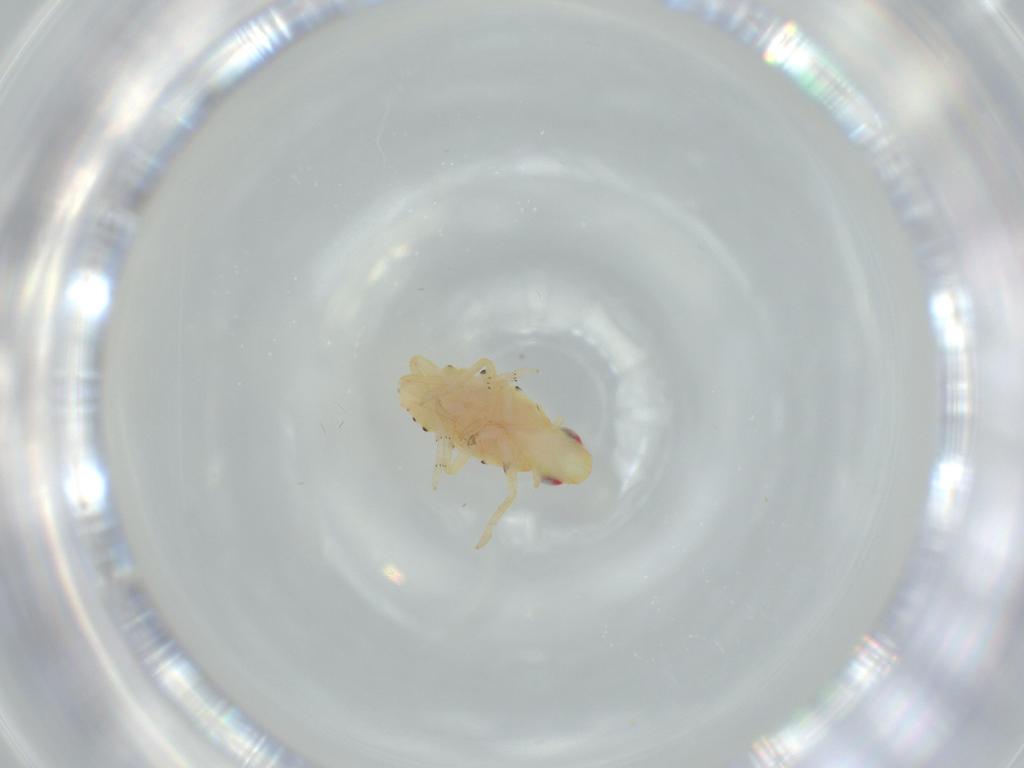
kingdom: Animalia
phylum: Arthropoda
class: Insecta
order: Hemiptera
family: Tropiduchidae
